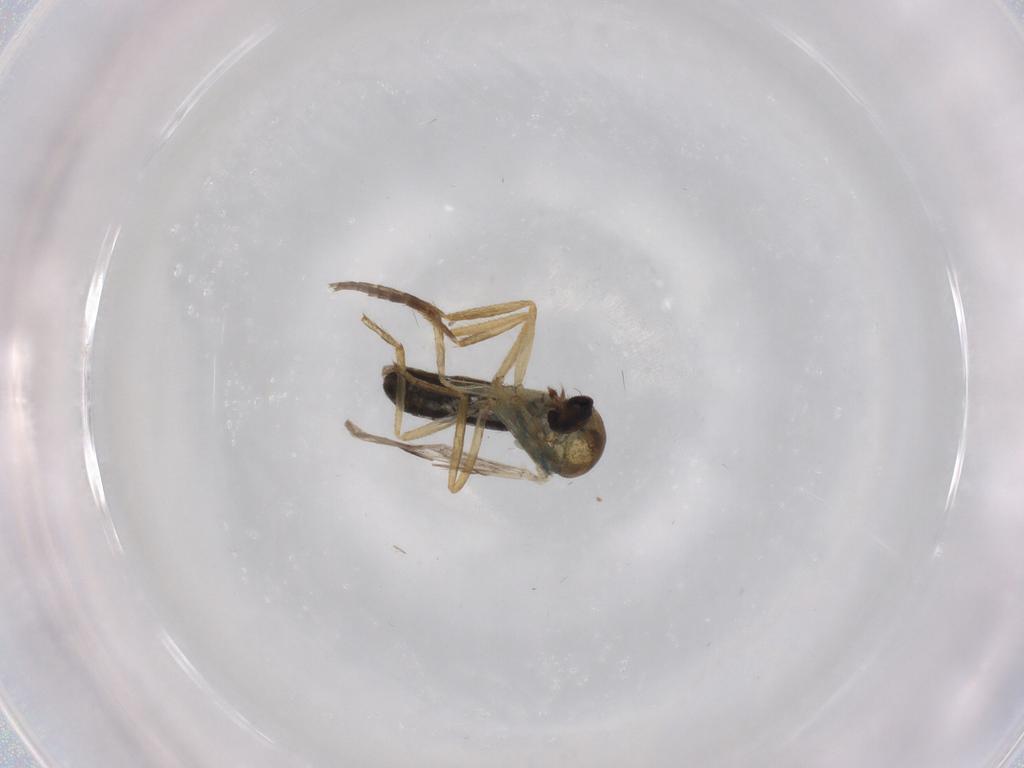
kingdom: Animalia
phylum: Arthropoda
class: Insecta
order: Diptera
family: Ceratopogonidae
